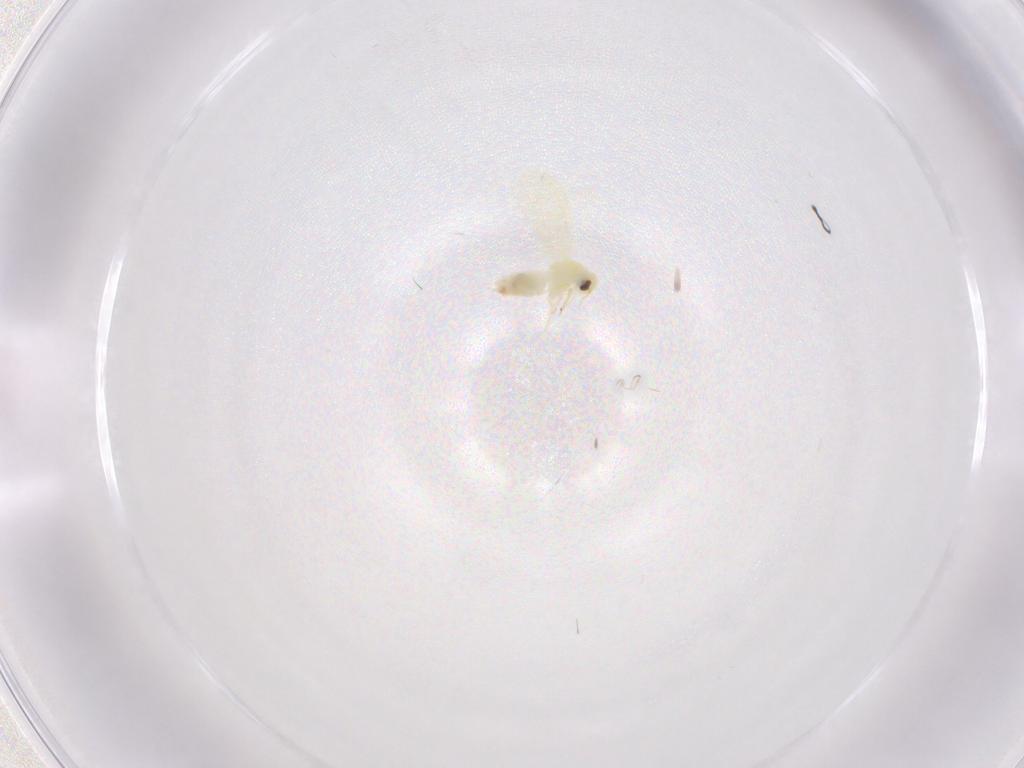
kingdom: Animalia
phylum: Arthropoda
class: Insecta
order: Hemiptera
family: Aleyrodidae
